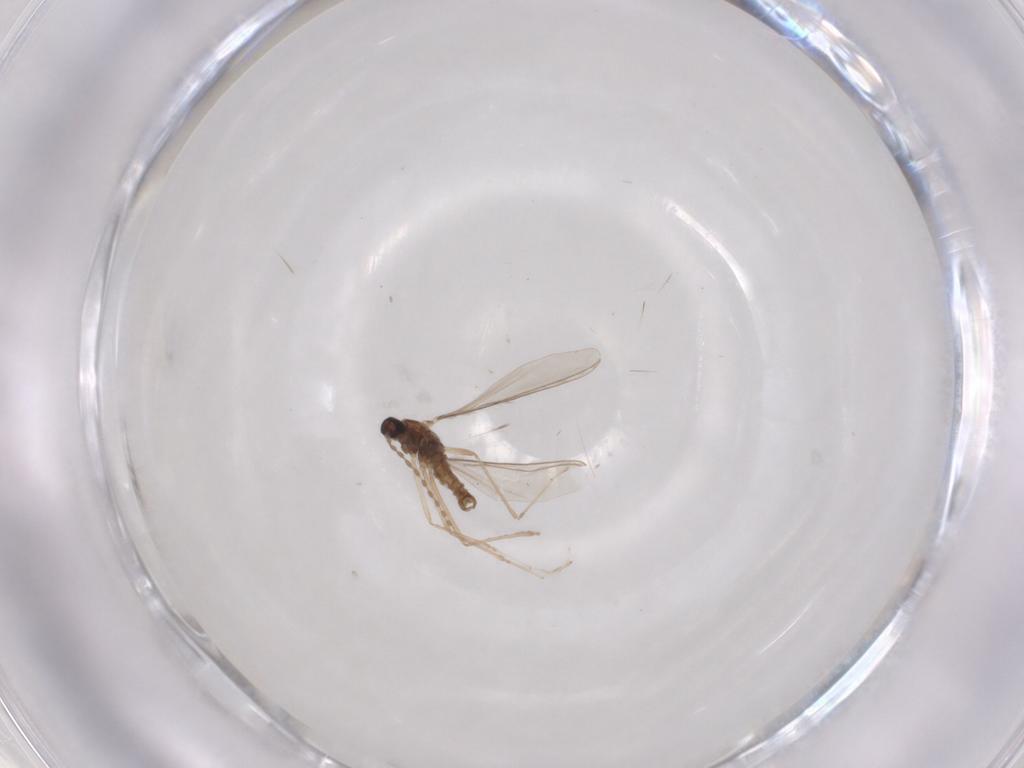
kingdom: Animalia
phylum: Arthropoda
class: Insecta
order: Diptera
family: Cecidomyiidae
